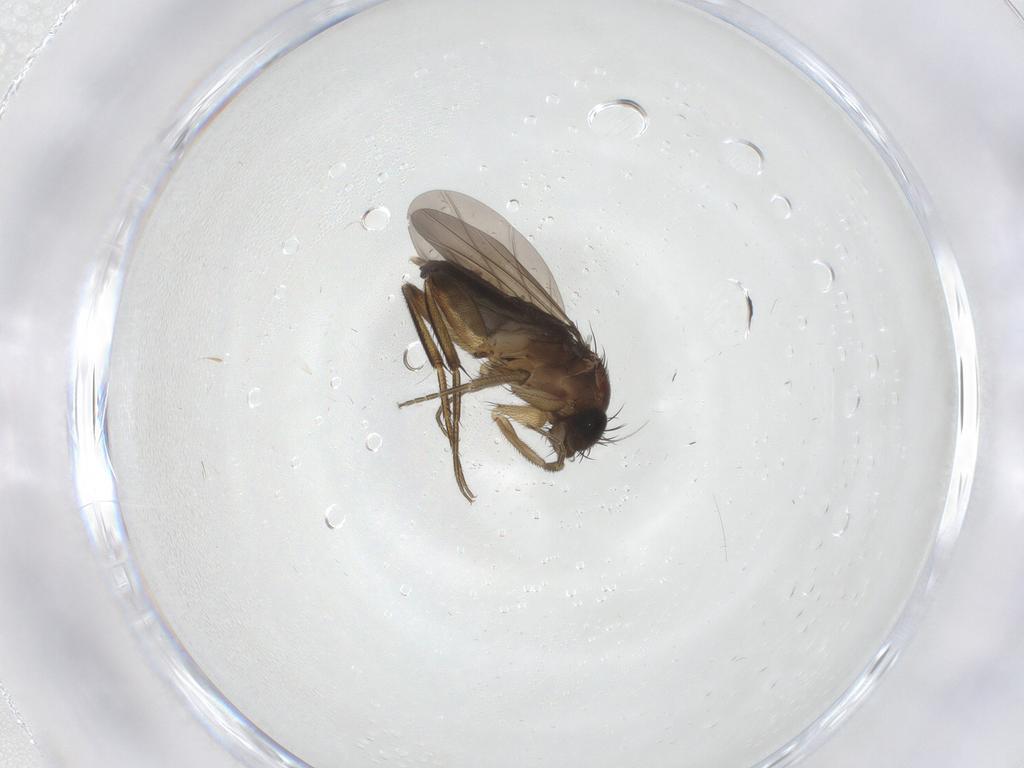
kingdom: Animalia
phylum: Arthropoda
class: Insecta
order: Diptera
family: Phoridae
